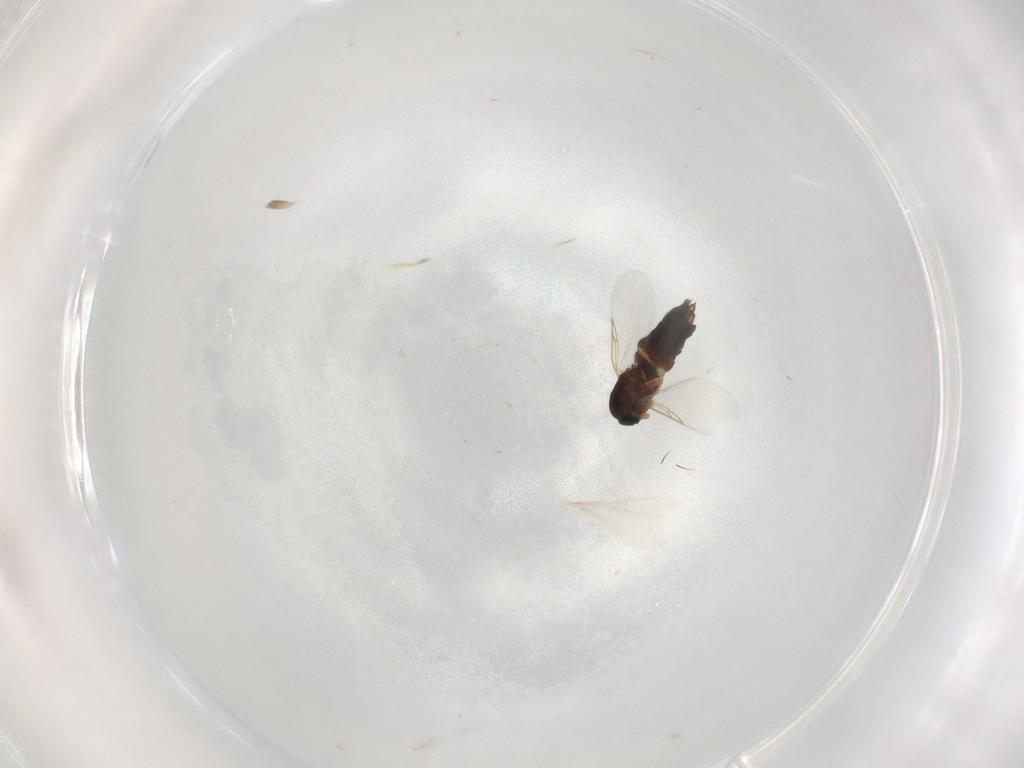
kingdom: Animalia
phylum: Arthropoda
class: Insecta
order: Diptera
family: Scatopsidae
